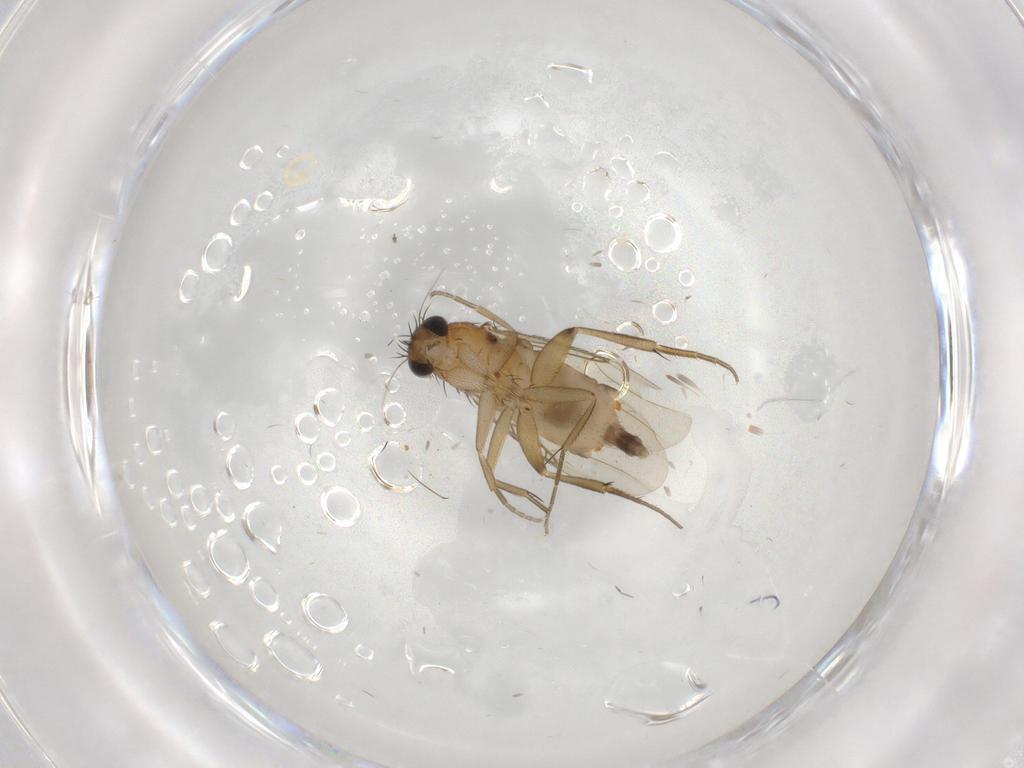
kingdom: Animalia
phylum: Arthropoda
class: Insecta
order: Diptera
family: Phoridae
